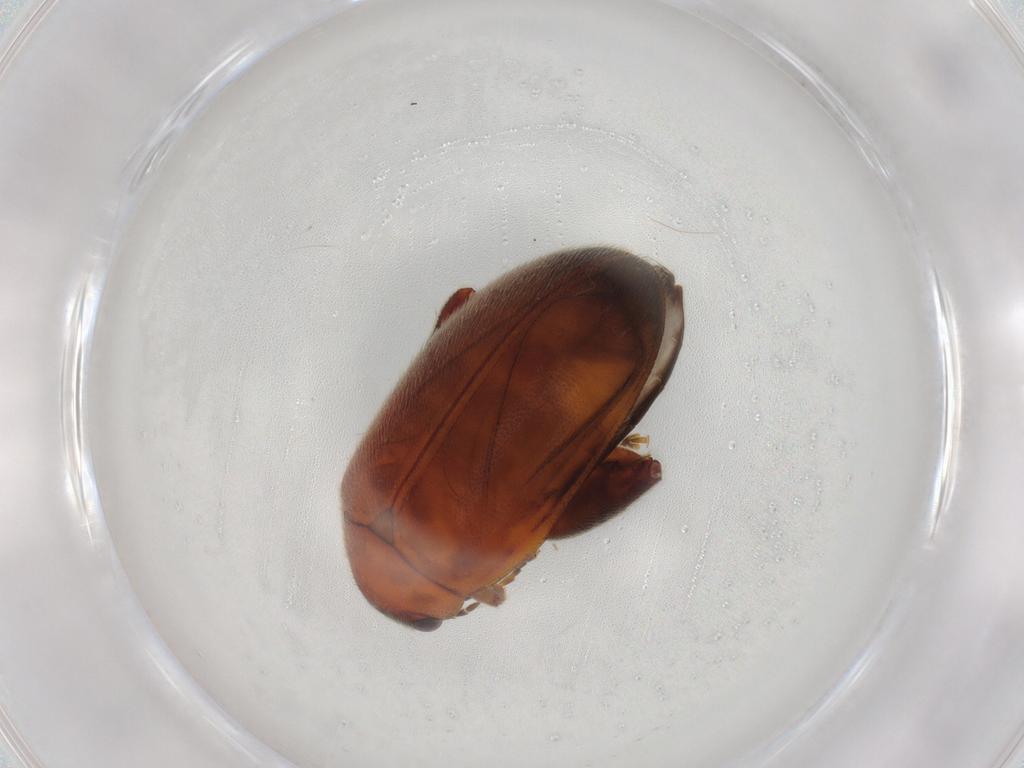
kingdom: Animalia
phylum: Arthropoda
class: Insecta
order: Coleoptera
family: Scirtidae
